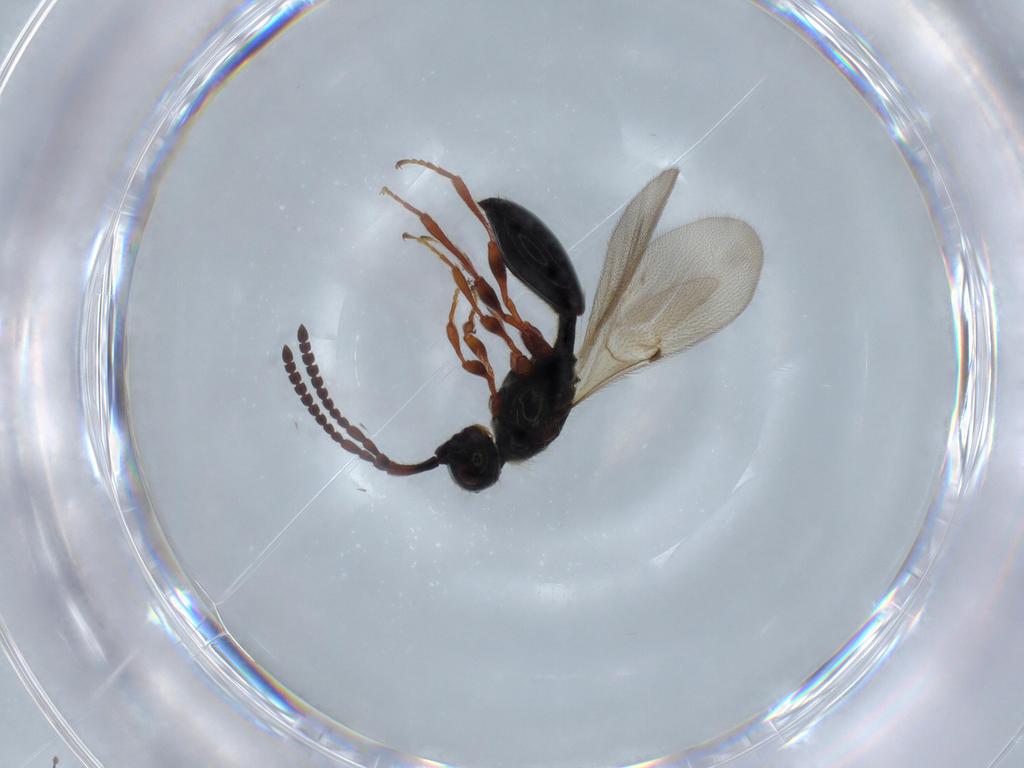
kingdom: Animalia
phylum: Arthropoda
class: Insecta
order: Hymenoptera
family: Diapriidae
